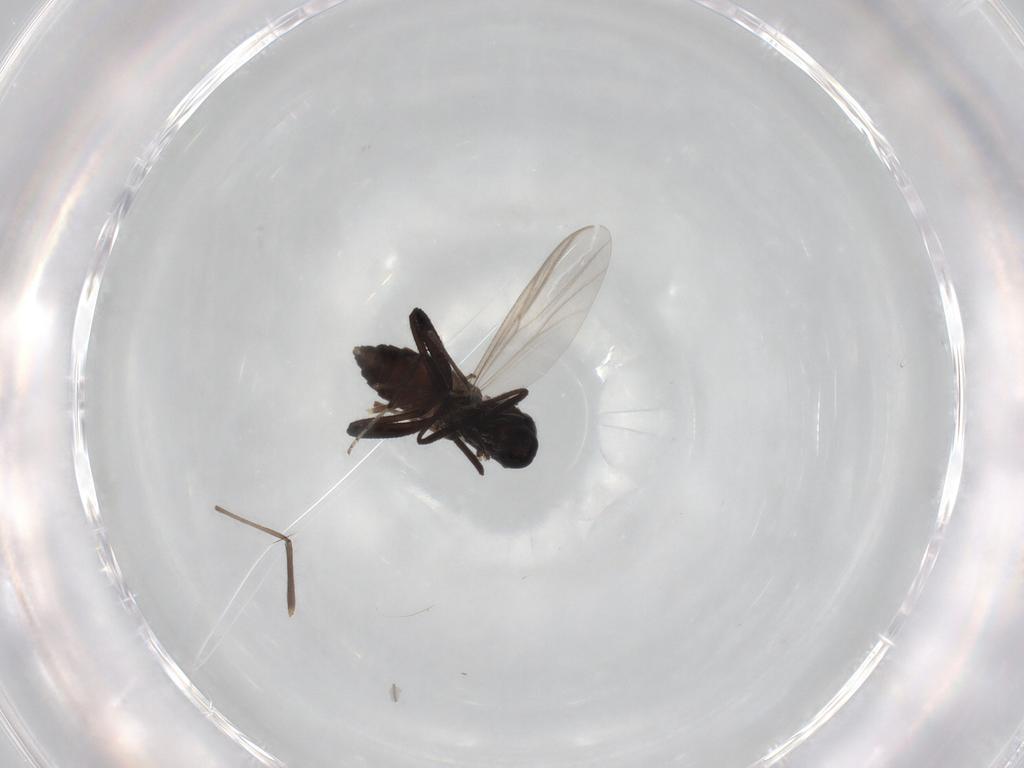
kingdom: Animalia
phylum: Arthropoda
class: Insecta
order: Diptera
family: Ceratopogonidae
